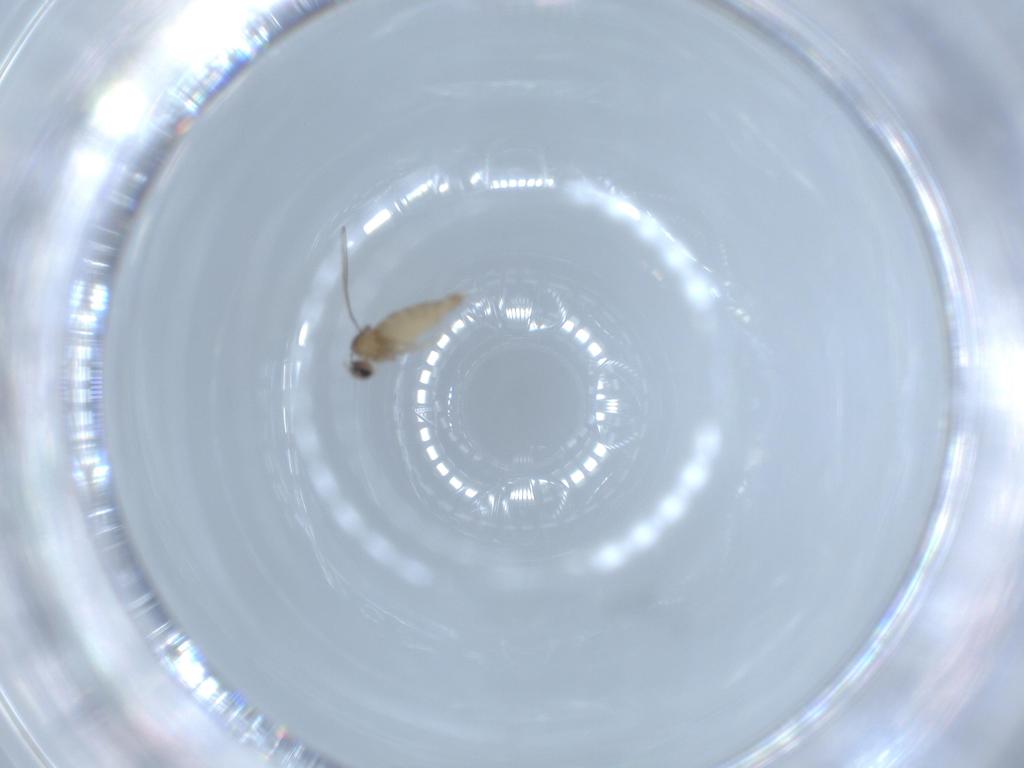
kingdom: Animalia
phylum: Arthropoda
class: Insecta
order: Diptera
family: Cecidomyiidae
